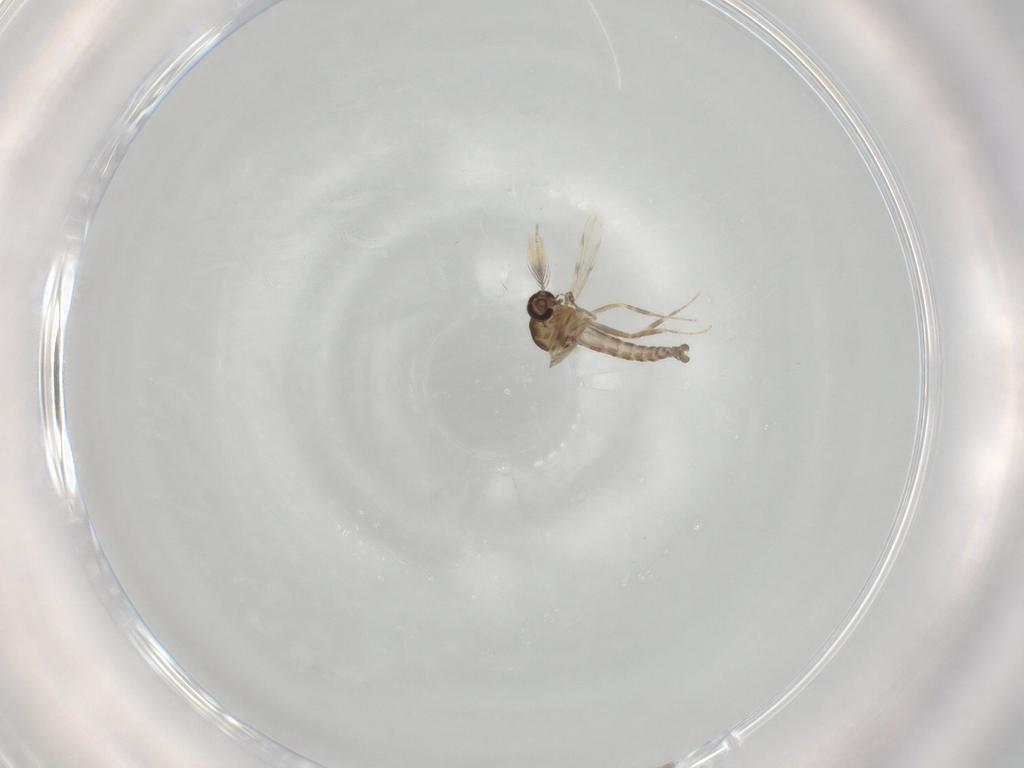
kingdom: Animalia
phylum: Arthropoda
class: Insecta
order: Diptera
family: Ceratopogonidae
